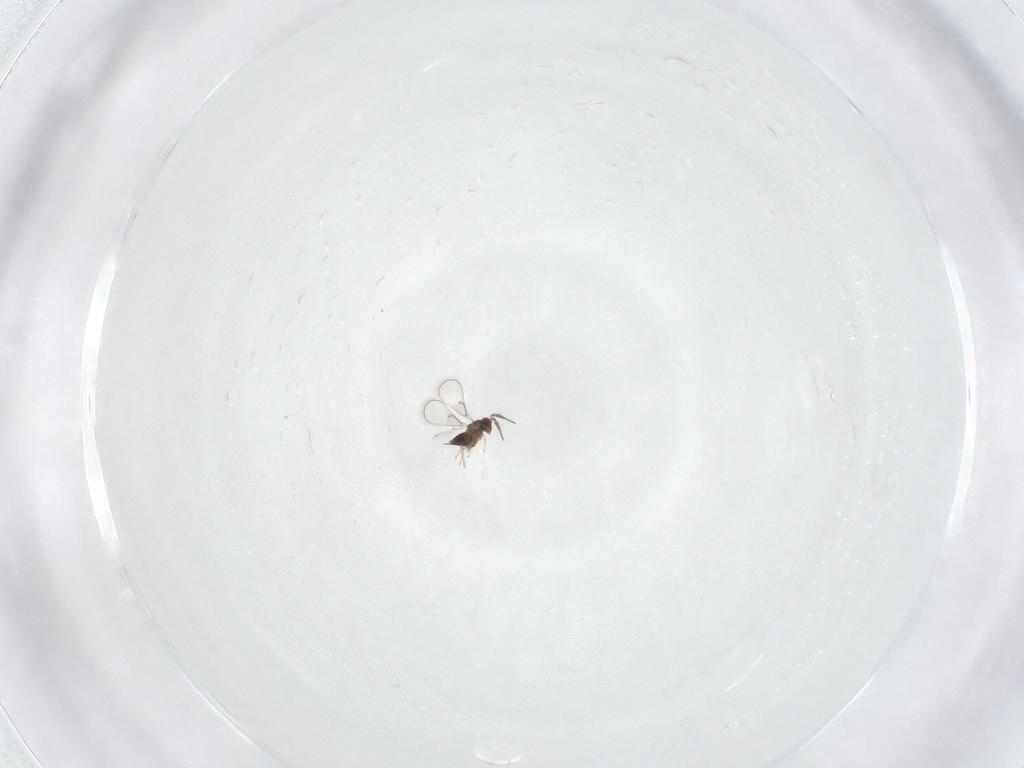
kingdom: Animalia
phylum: Arthropoda
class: Insecta
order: Hymenoptera
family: Trichogrammatidae
